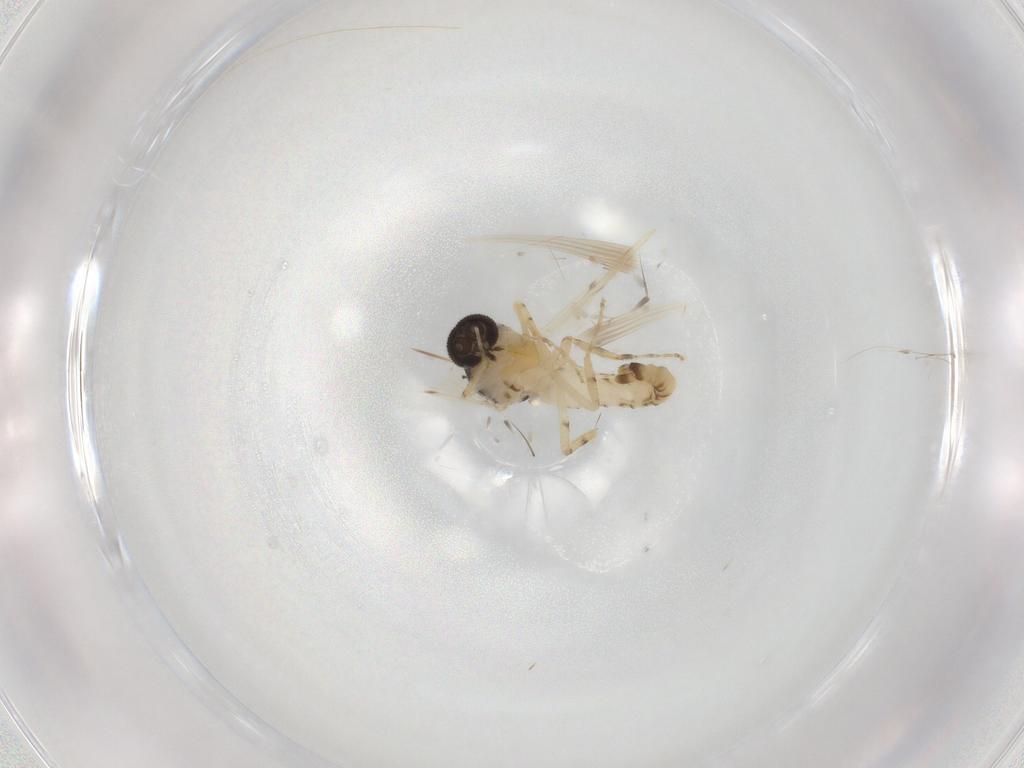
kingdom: Animalia
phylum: Arthropoda
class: Insecta
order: Diptera
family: Ceratopogonidae
